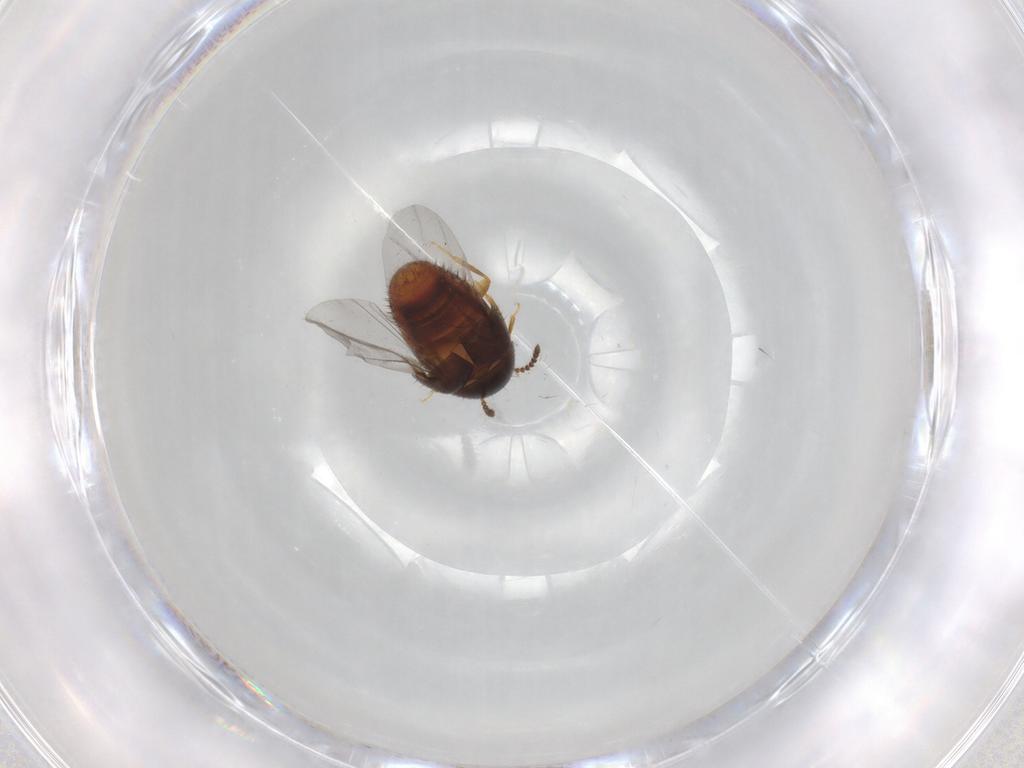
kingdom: Animalia
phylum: Arthropoda
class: Insecta
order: Coleoptera
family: Staphylinidae
